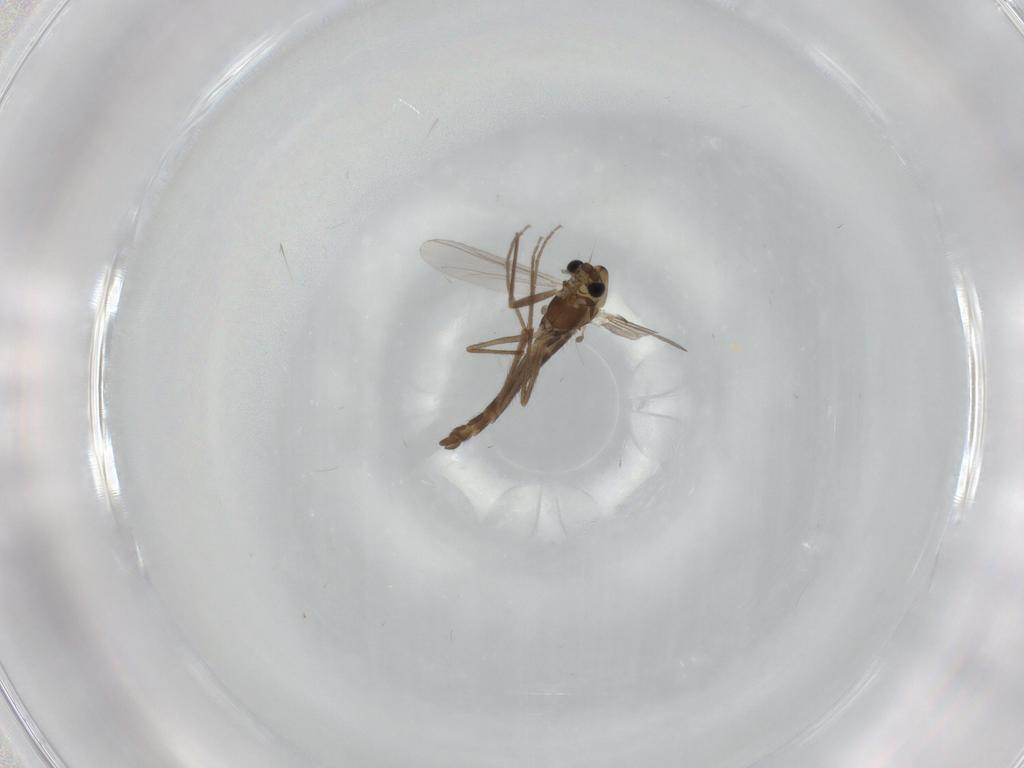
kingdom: Animalia
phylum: Arthropoda
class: Insecta
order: Diptera
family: Chironomidae
